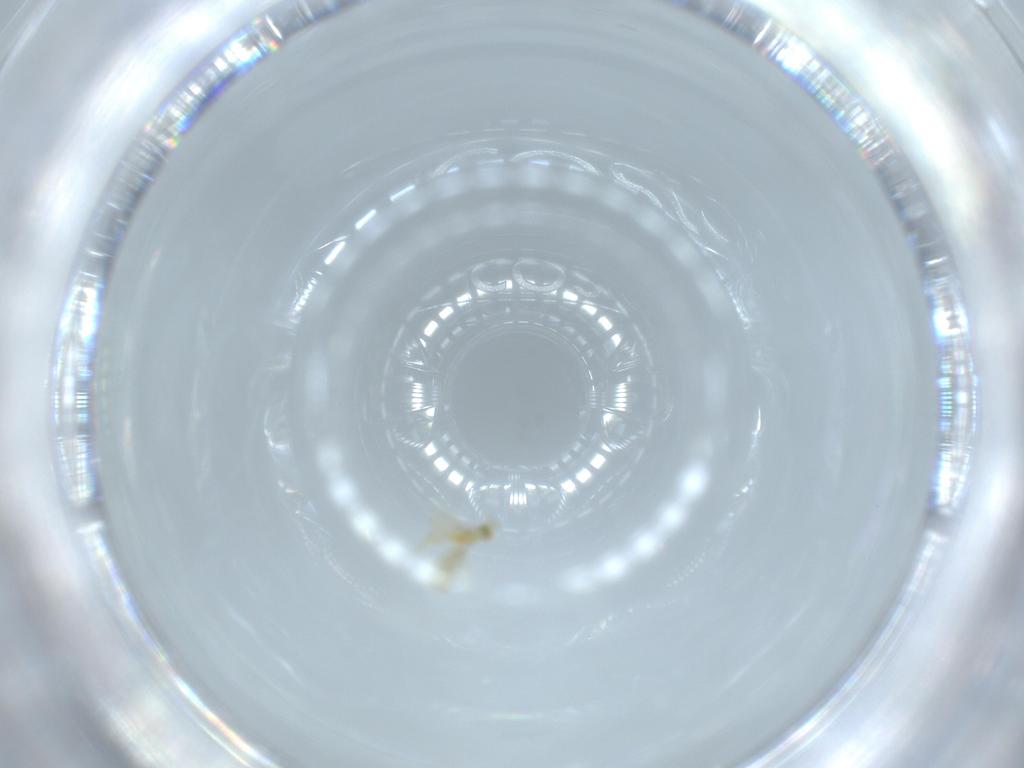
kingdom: Animalia
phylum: Arthropoda
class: Insecta
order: Hymenoptera
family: Aphelinidae
